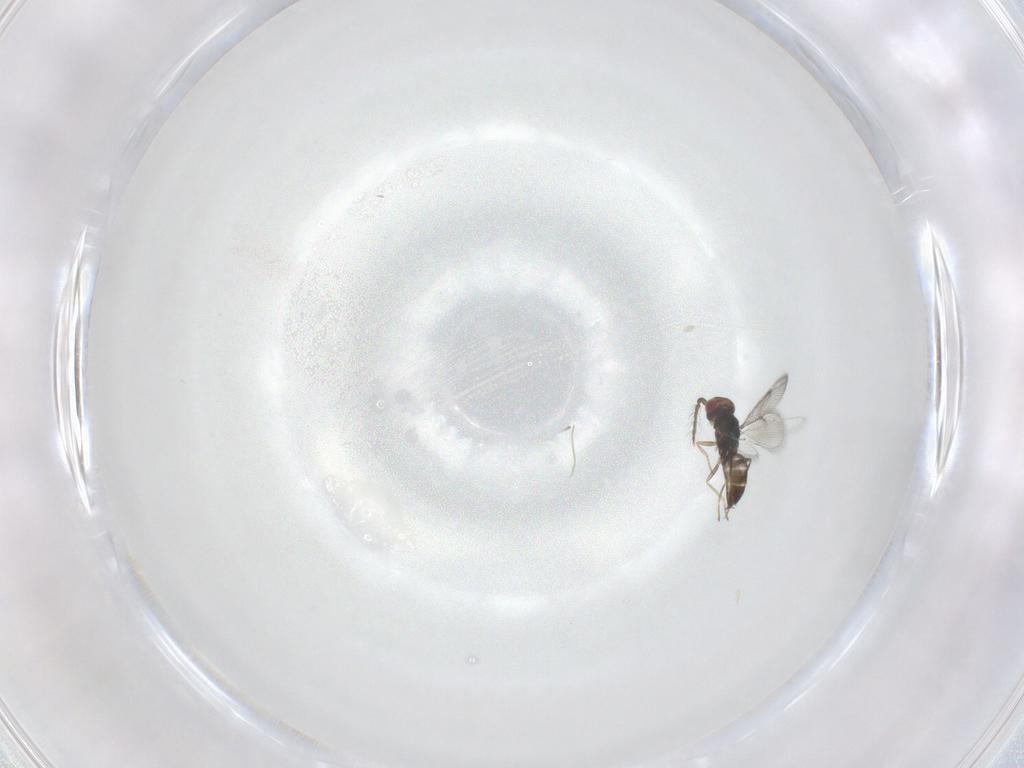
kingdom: Animalia
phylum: Arthropoda
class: Insecta
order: Hymenoptera
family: Eulophidae
